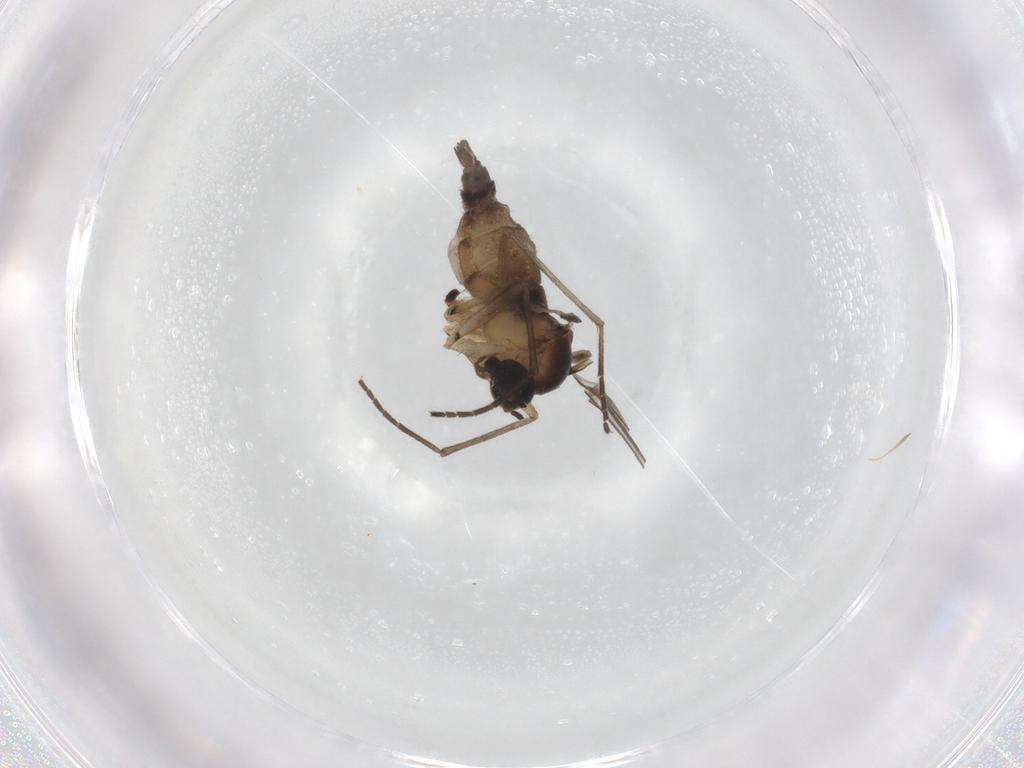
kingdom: Animalia
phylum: Arthropoda
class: Insecta
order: Diptera
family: Sciaridae
